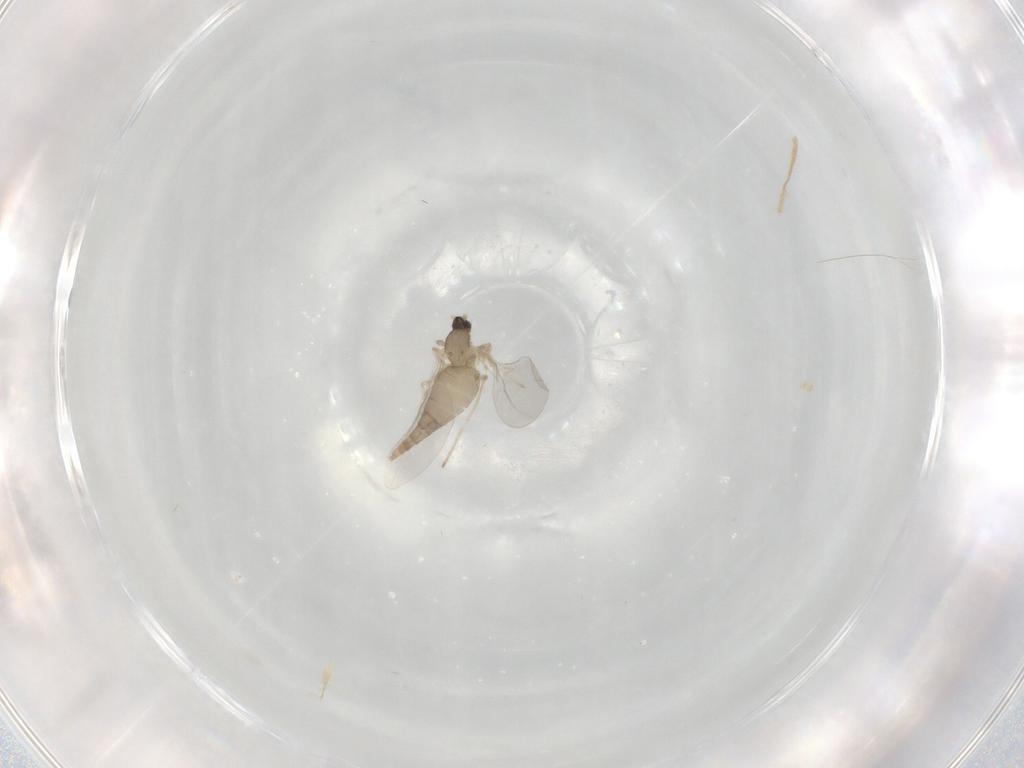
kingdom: Animalia
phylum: Arthropoda
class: Insecta
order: Diptera
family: Cecidomyiidae
